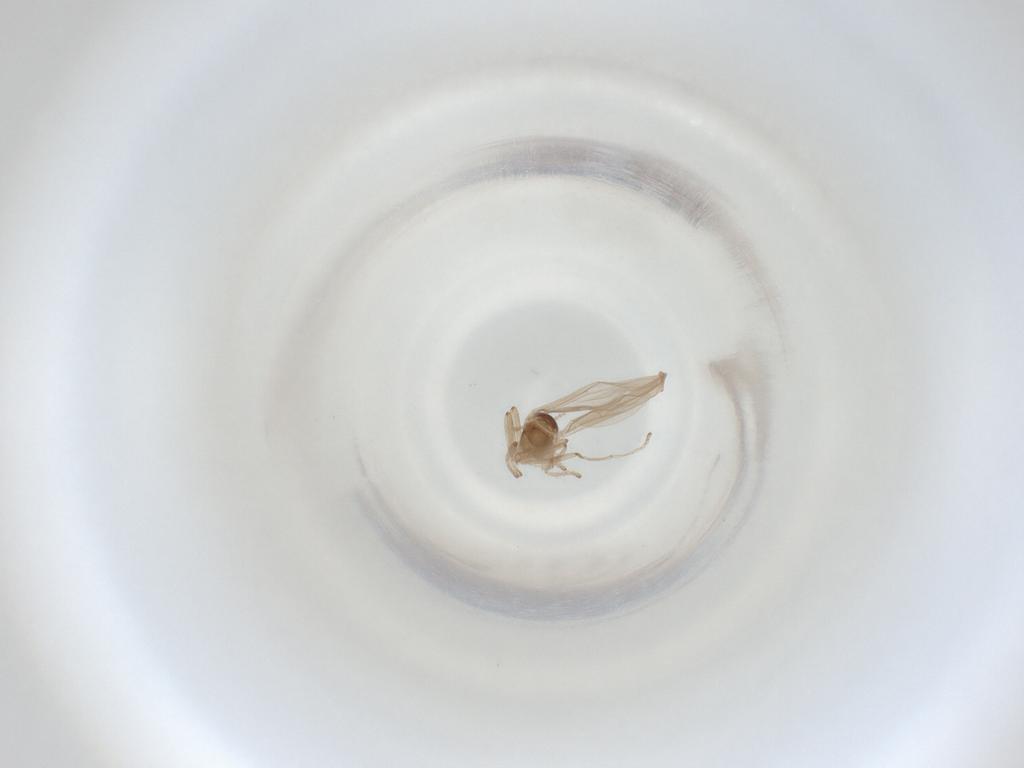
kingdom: Animalia
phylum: Arthropoda
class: Insecta
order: Diptera
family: Cecidomyiidae
